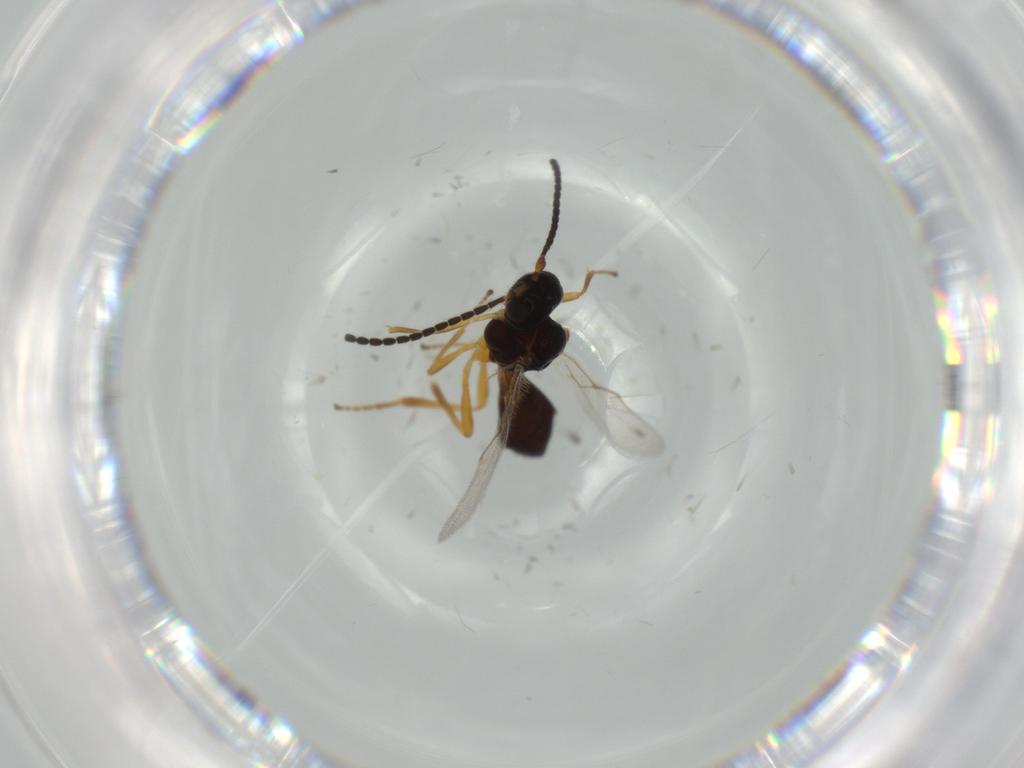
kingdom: Animalia
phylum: Arthropoda
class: Insecta
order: Hymenoptera
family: Braconidae
